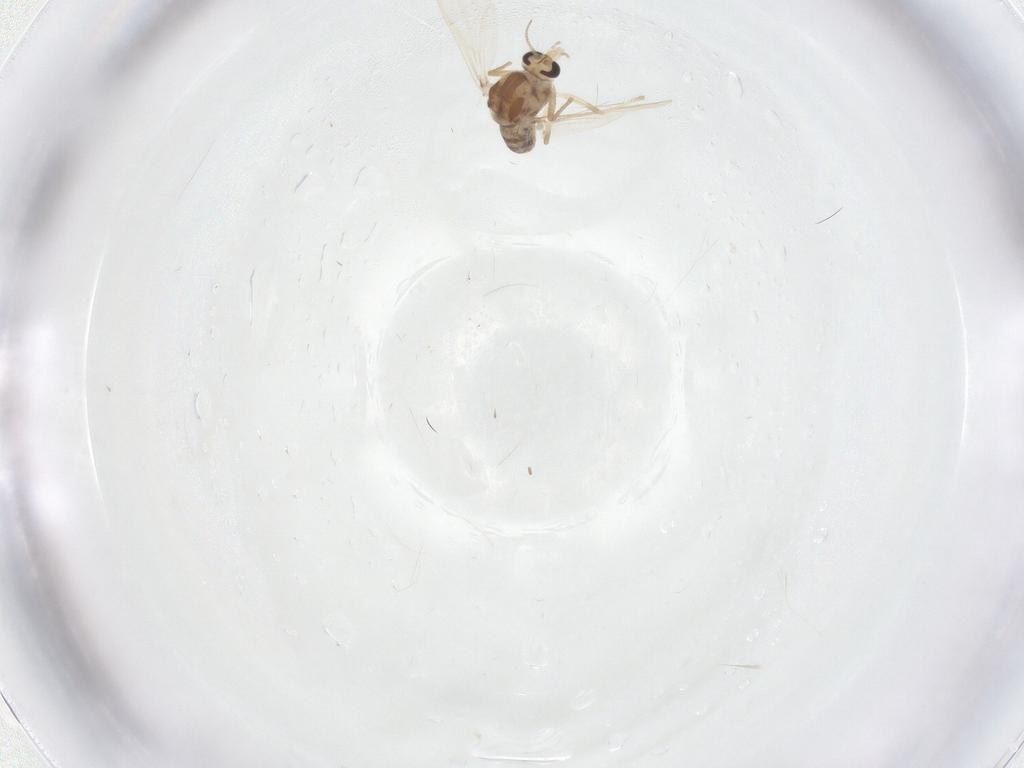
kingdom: Animalia
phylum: Arthropoda
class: Insecta
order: Diptera
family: Chironomidae
